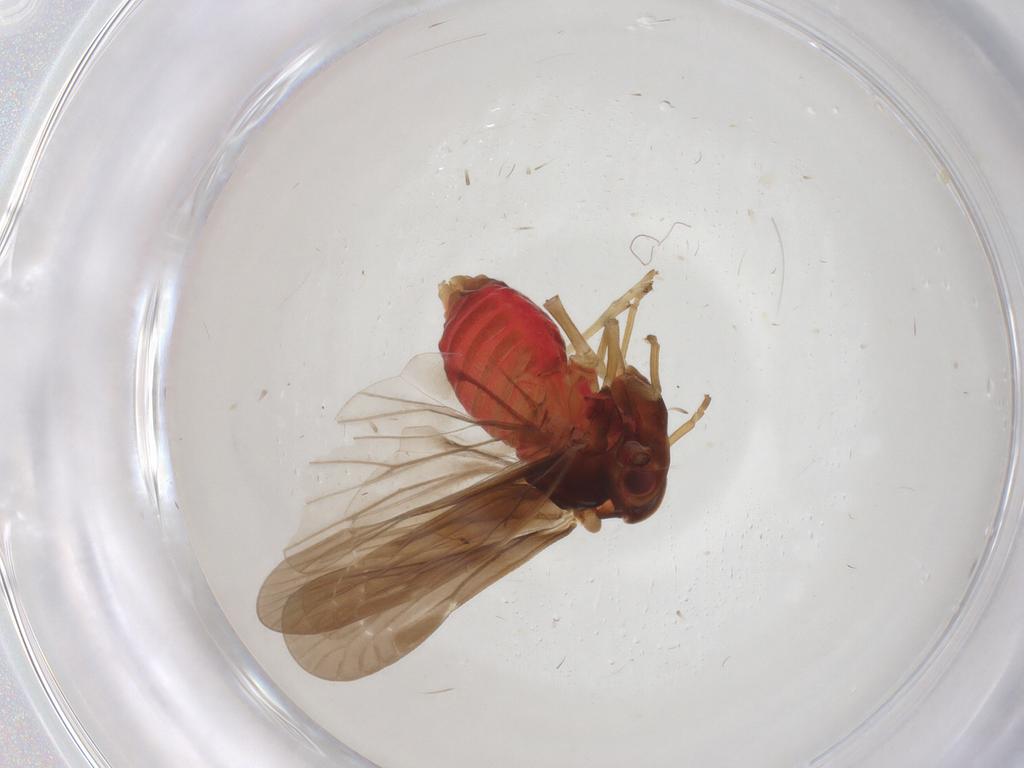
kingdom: Animalia
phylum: Arthropoda
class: Insecta
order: Hemiptera
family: Derbidae
